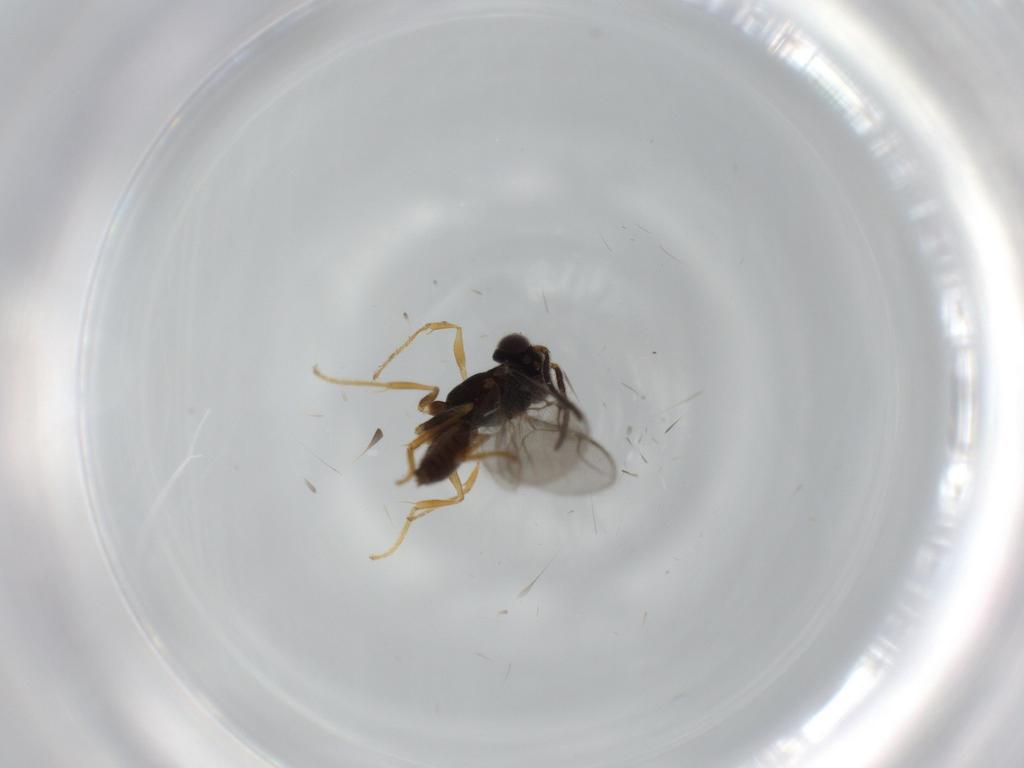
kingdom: Animalia
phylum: Arthropoda
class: Insecta
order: Hymenoptera
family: Dryinidae
